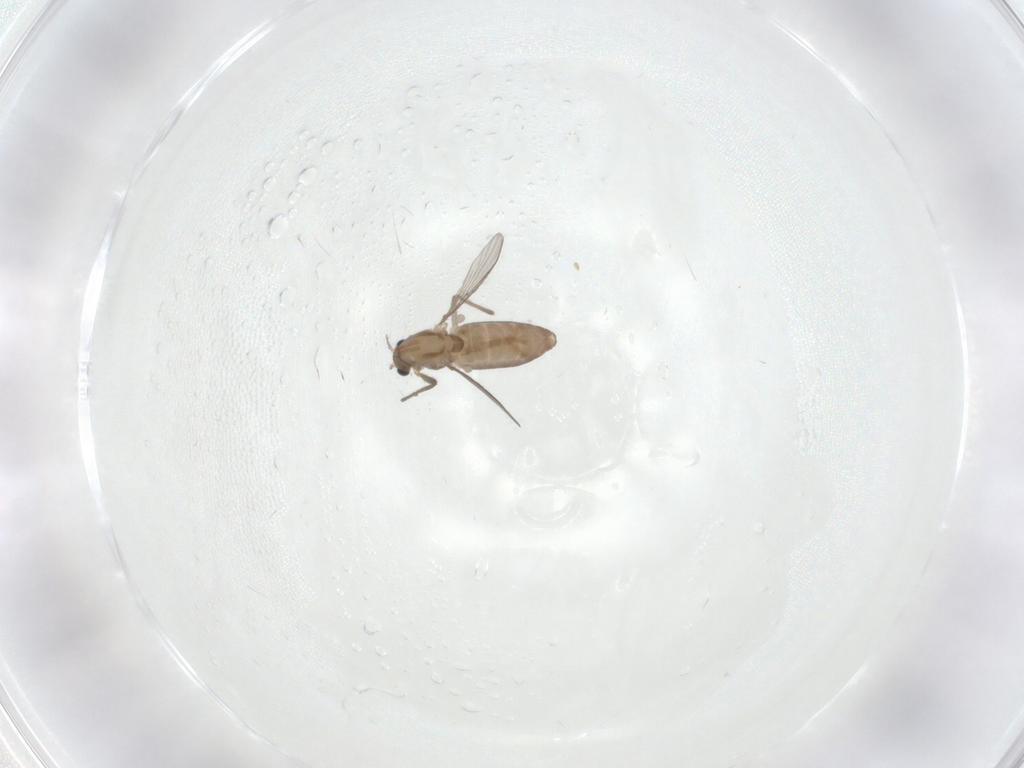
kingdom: Animalia
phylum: Arthropoda
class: Insecta
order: Diptera
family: Chironomidae
